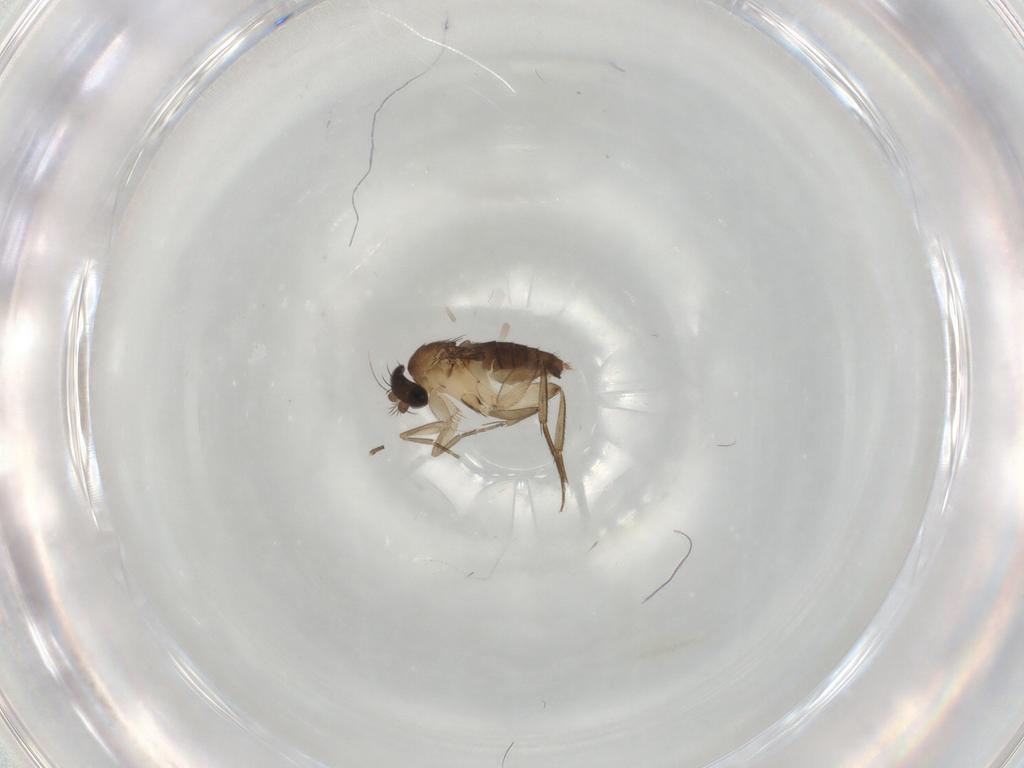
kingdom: Animalia
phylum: Arthropoda
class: Insecta
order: Diptera
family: Phoridae
